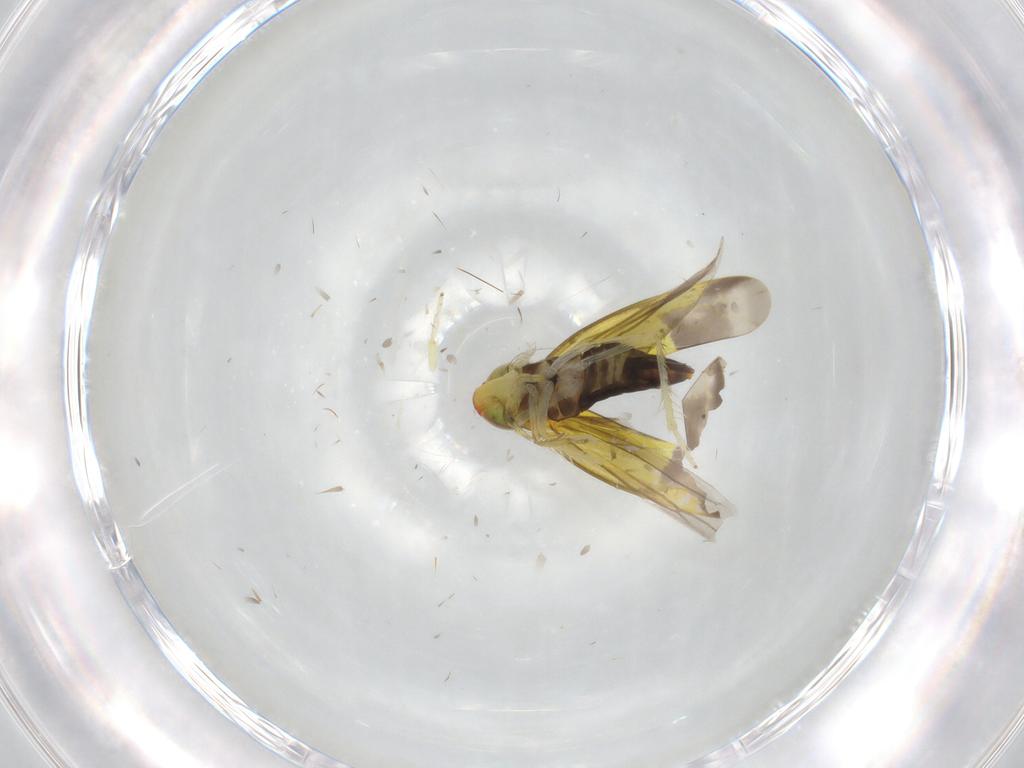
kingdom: Animalia
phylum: Arthropoda
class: Insecta
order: Hemiptera
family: Cicadellidae
